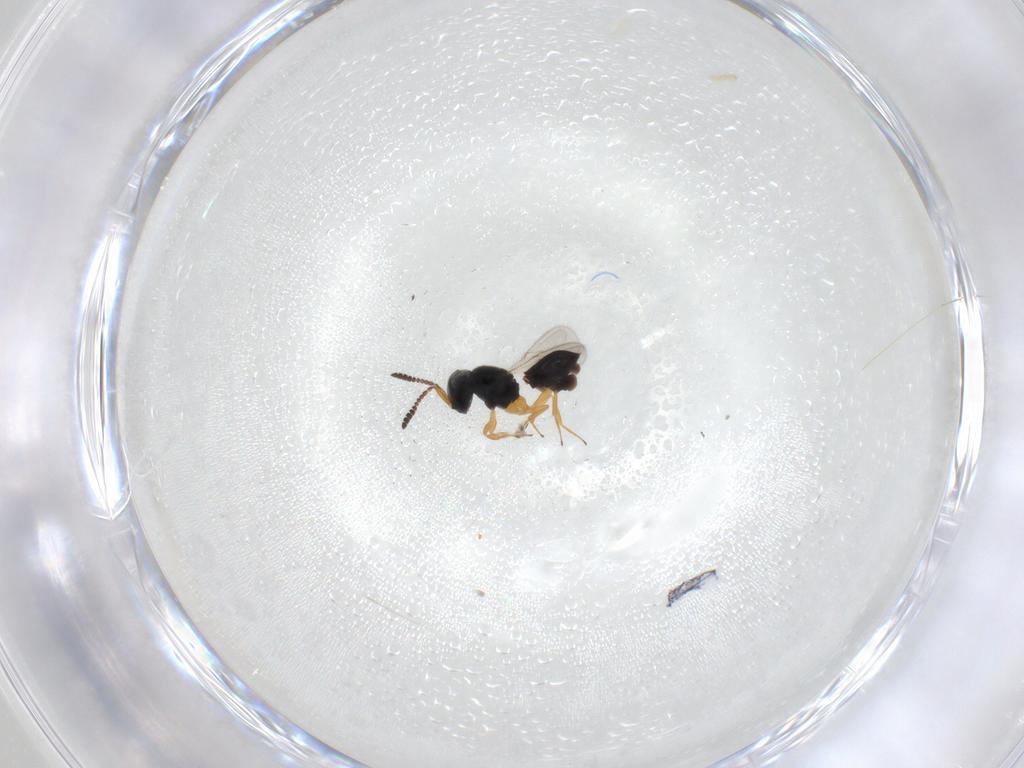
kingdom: Animalia
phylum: Arthropoda
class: Insecta
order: Hymenoptera
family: Scelionidae
